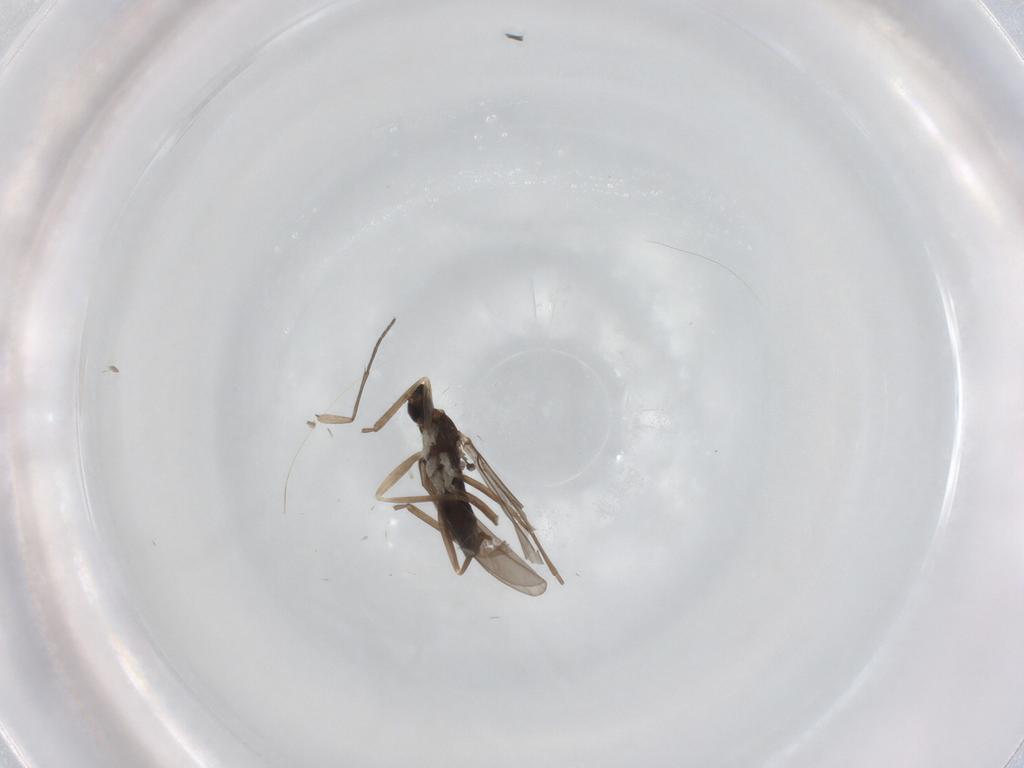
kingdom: Animalia
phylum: Arthropoda
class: Insecta
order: Diptera
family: Cecidomyiidae
